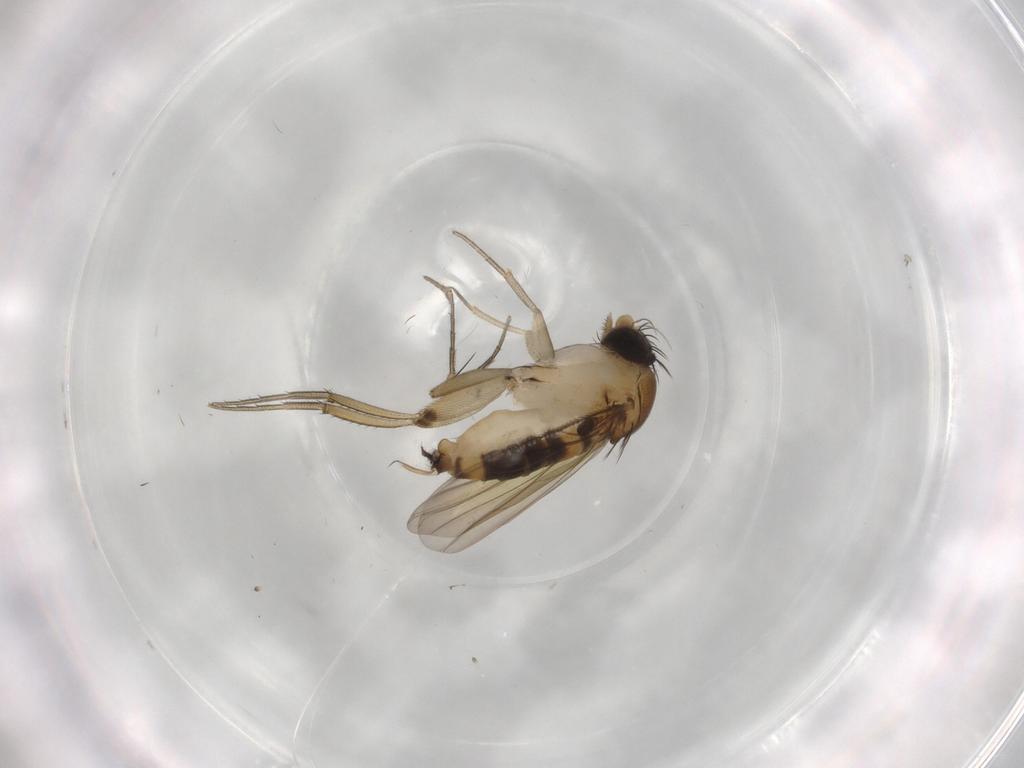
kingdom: Animalia
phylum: Arthropoda
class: Insecta
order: Diptera
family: Phoridae
